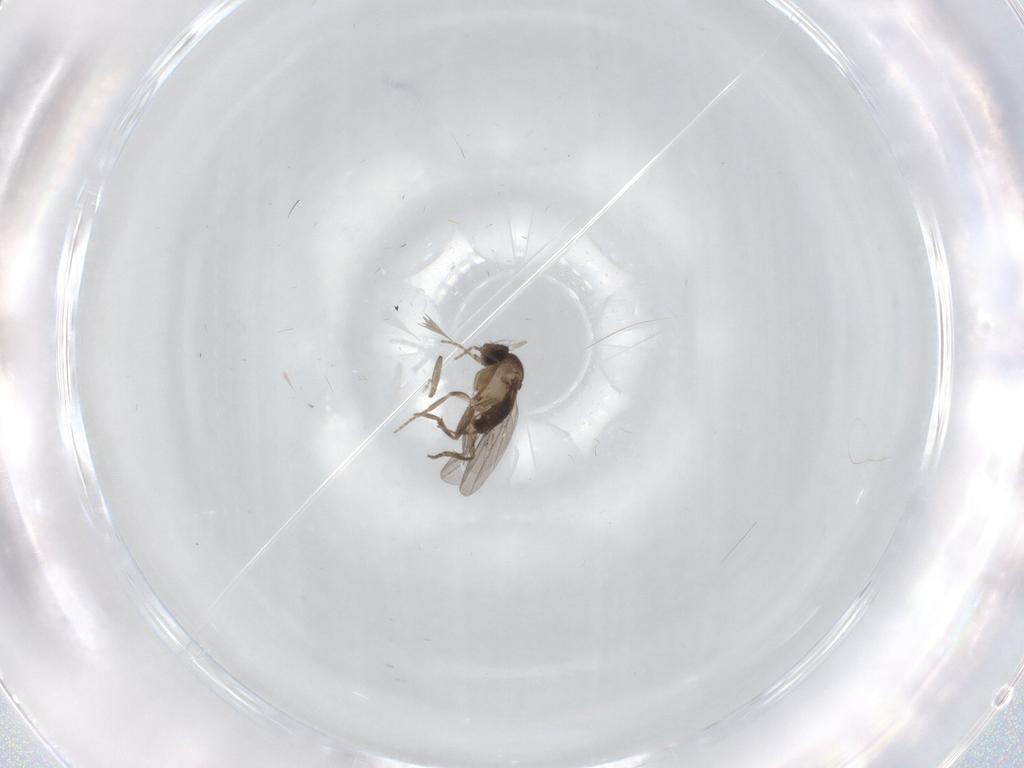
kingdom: Animalia
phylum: Arthropoda
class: Insecta
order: Diptera
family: Phoridae
